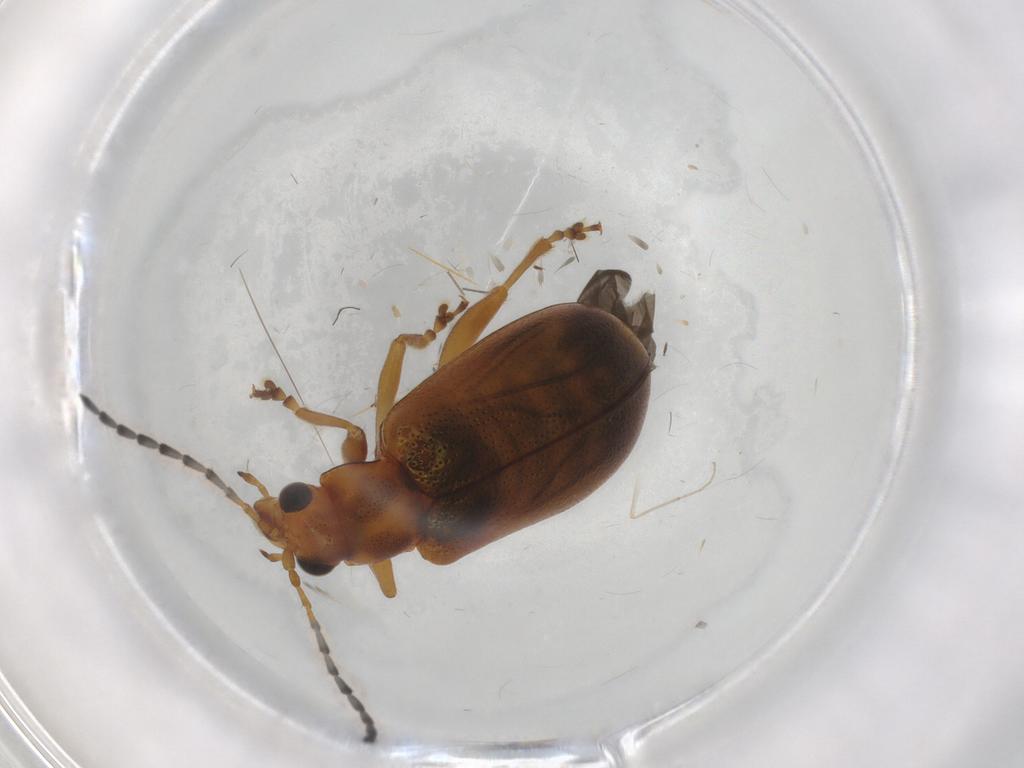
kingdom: Animalia
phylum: Arthropoda
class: Insecta
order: Coleoptera
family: Chrysomelidae
